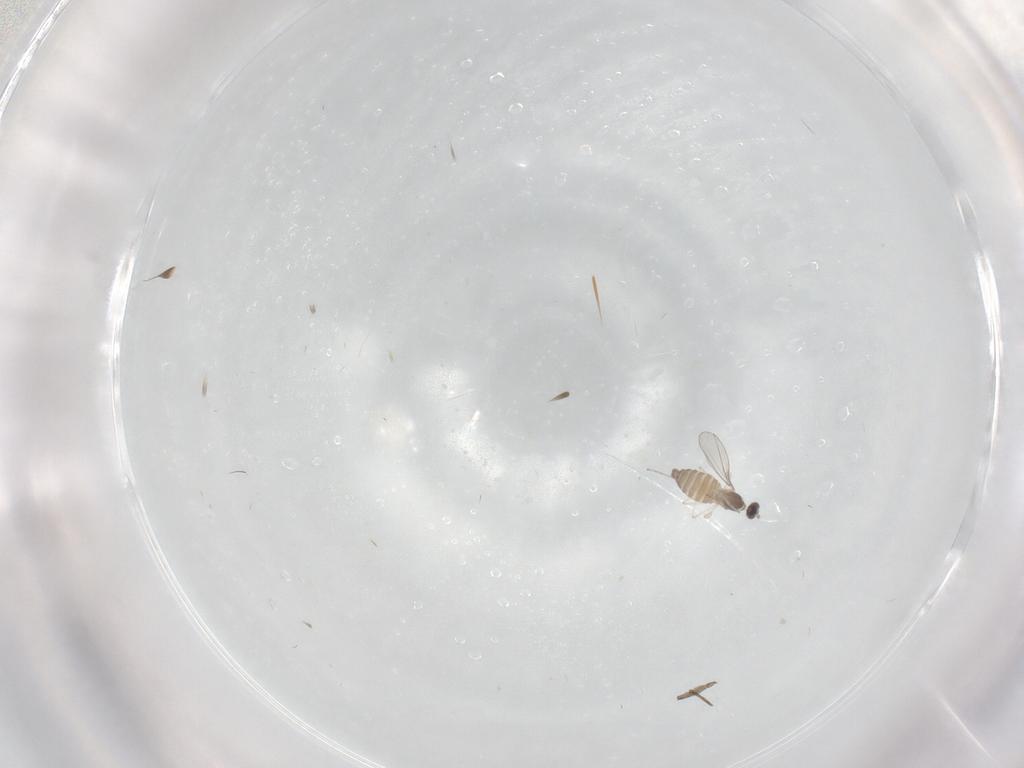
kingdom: Animalia
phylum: Arthropoda
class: Insecta
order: Diptera
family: Cecidomyiidae
